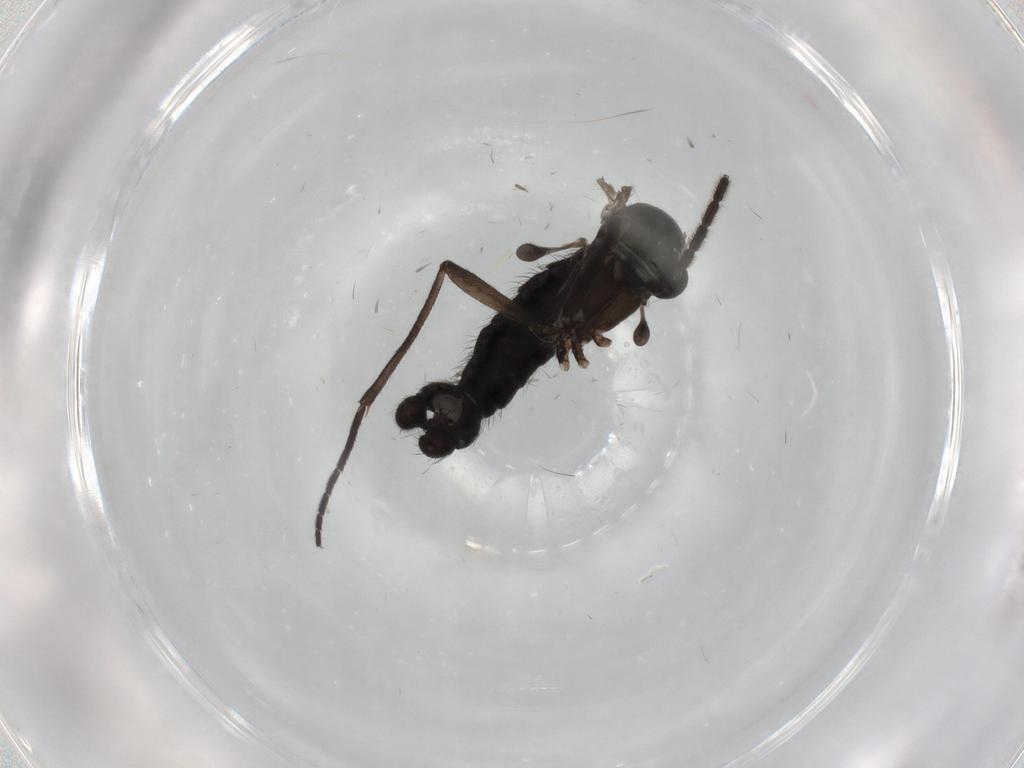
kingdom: Animalia
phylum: Arthropoda
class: Insecta
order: Diptera
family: Sciaridae
